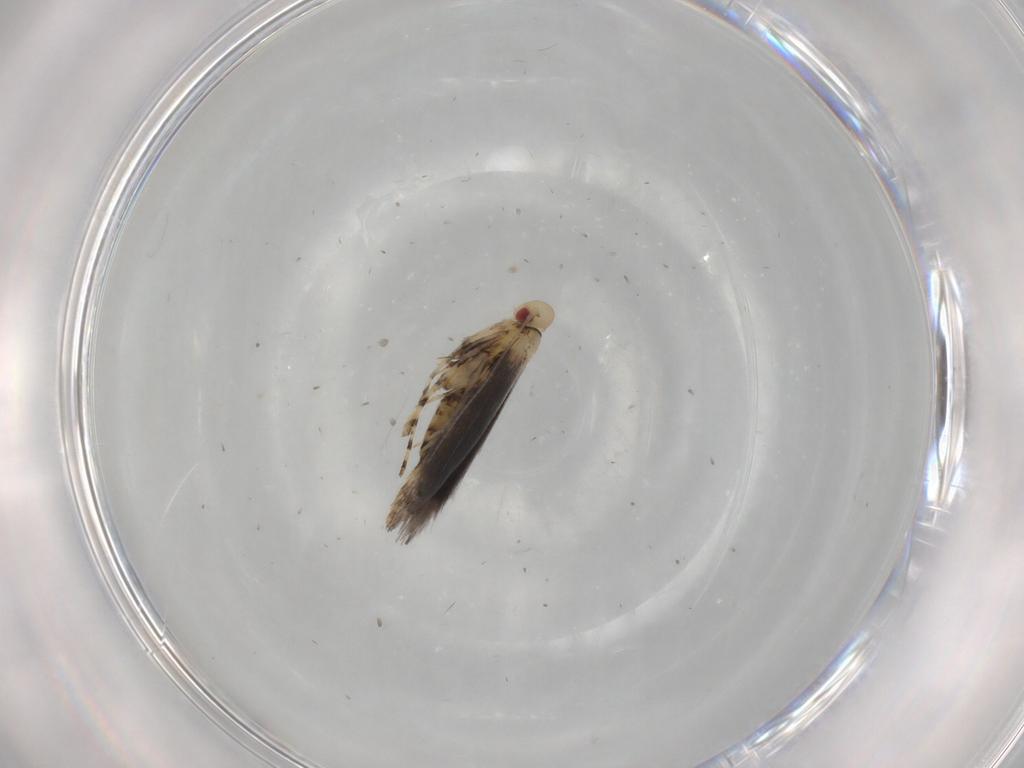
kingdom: Animalia
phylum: Arthropoda
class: Insecta
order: Lepidoptera
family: Gracillariidae
